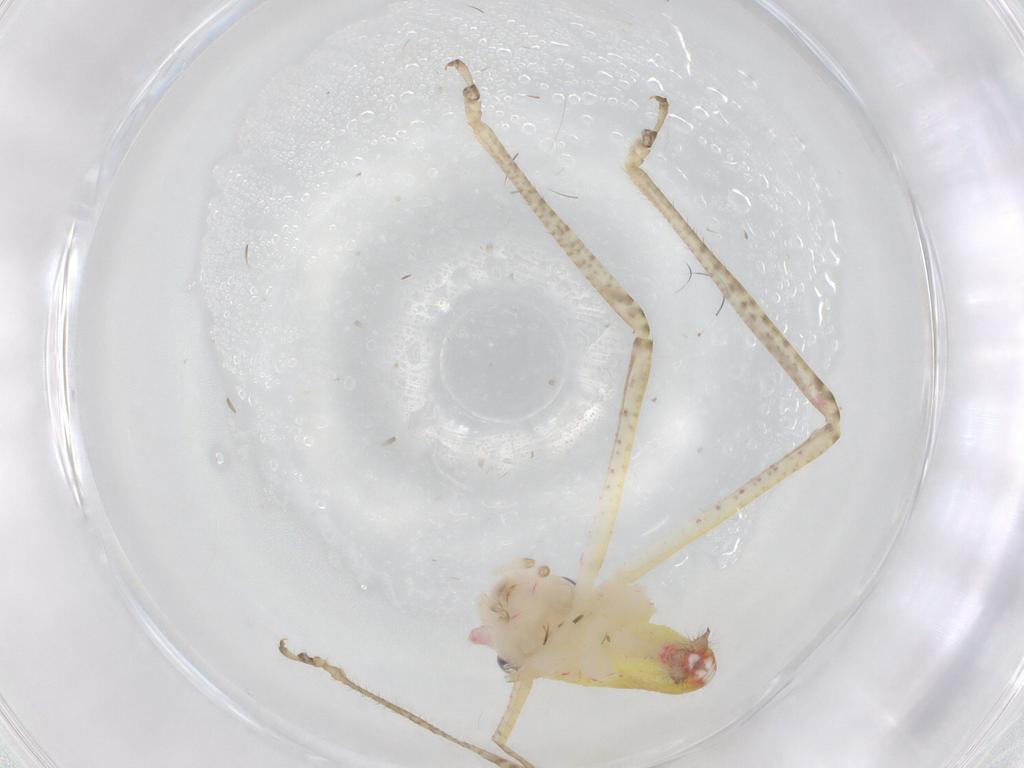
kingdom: Animalia
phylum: Arthropoda
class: Insecta
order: Orthoptera
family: Tettigoniidae
